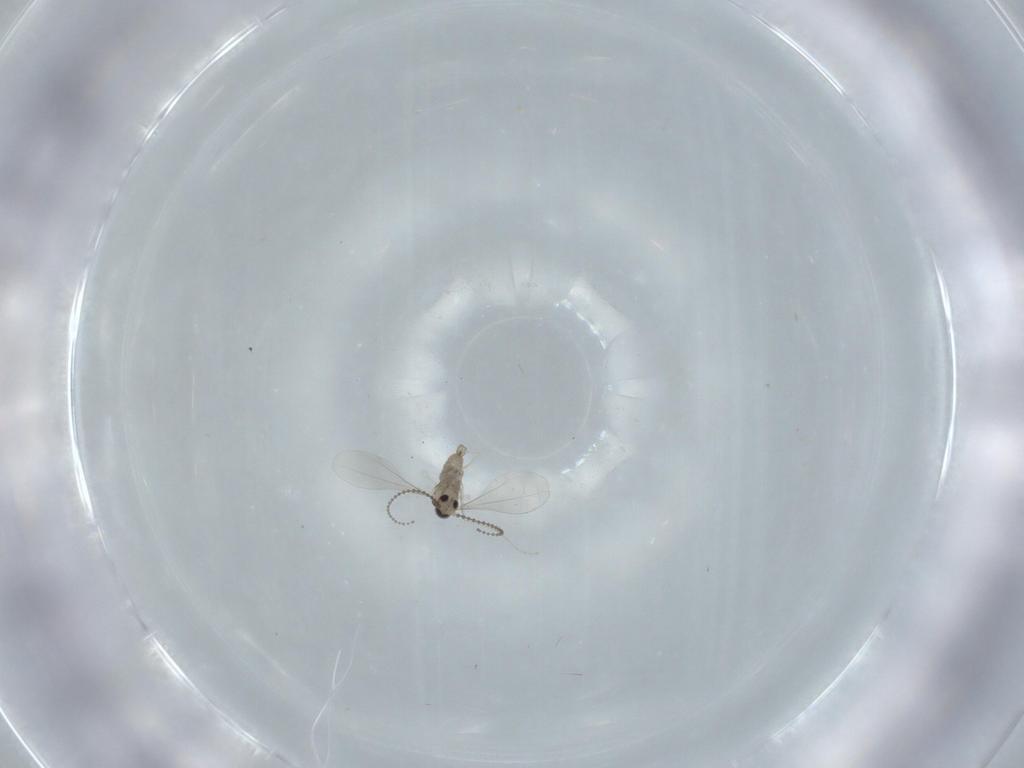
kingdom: Animalia
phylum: Arthropoda
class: Insecta
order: Diptera
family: Cecidomyiidae
